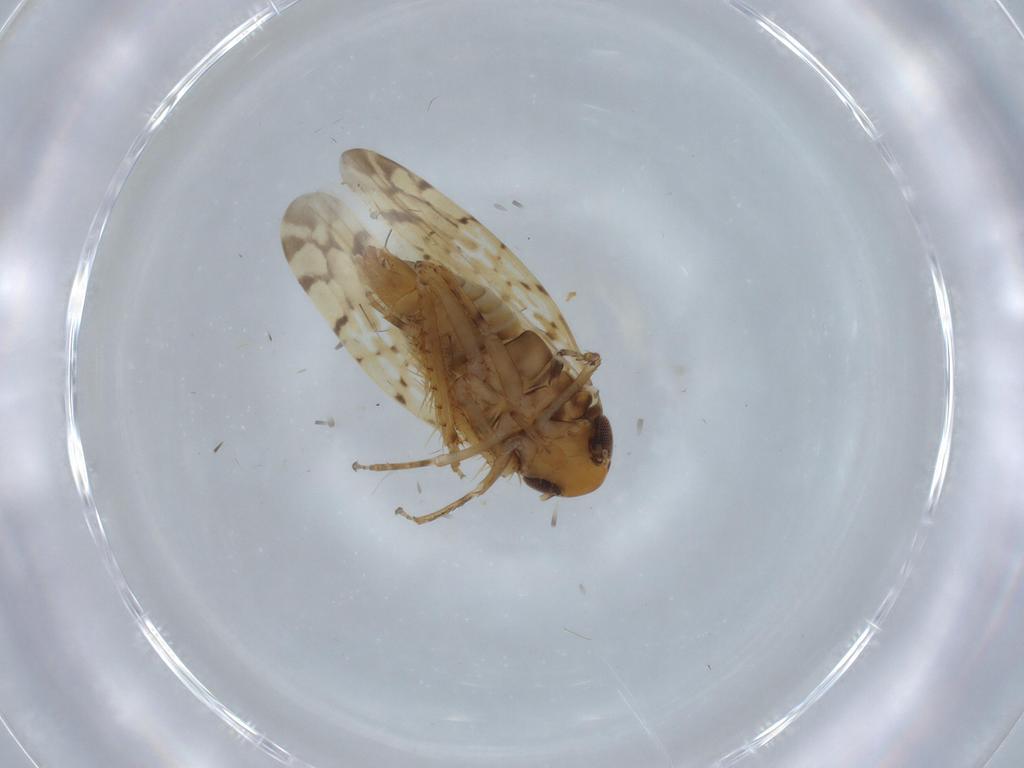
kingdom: Animalia
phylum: Arthropoda
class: Insecta
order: Hemiptera
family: Cicadellidae
